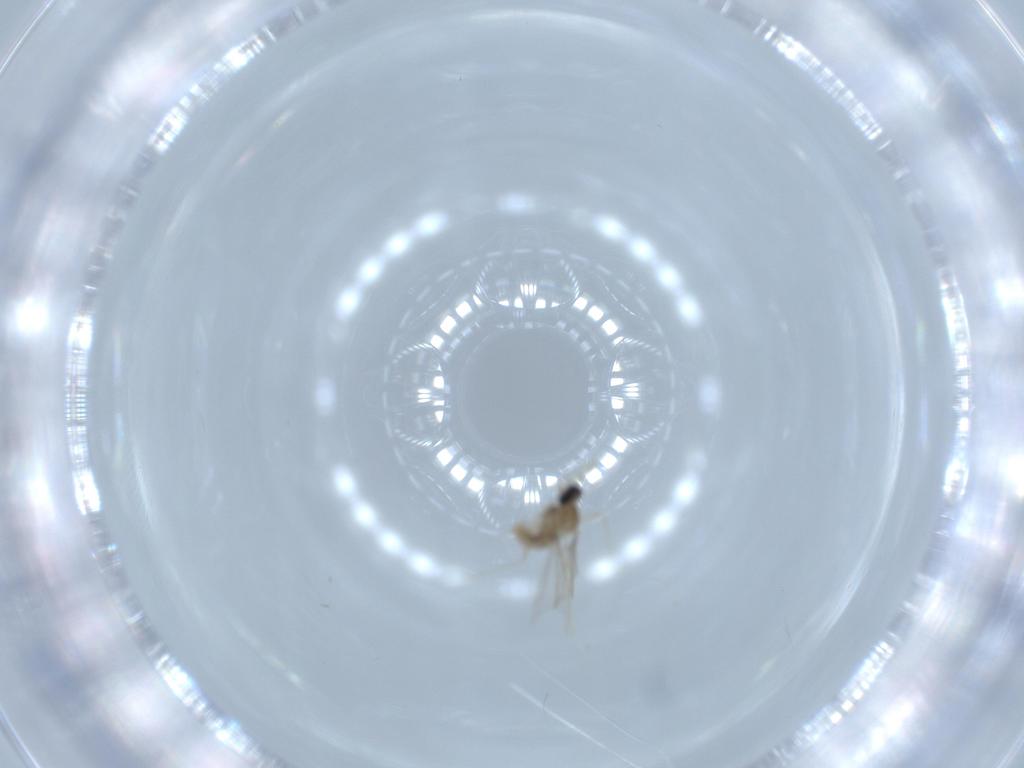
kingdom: Animalia
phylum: Arthropoda
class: Insecta
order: Diptera
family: Cecidomyiidae
